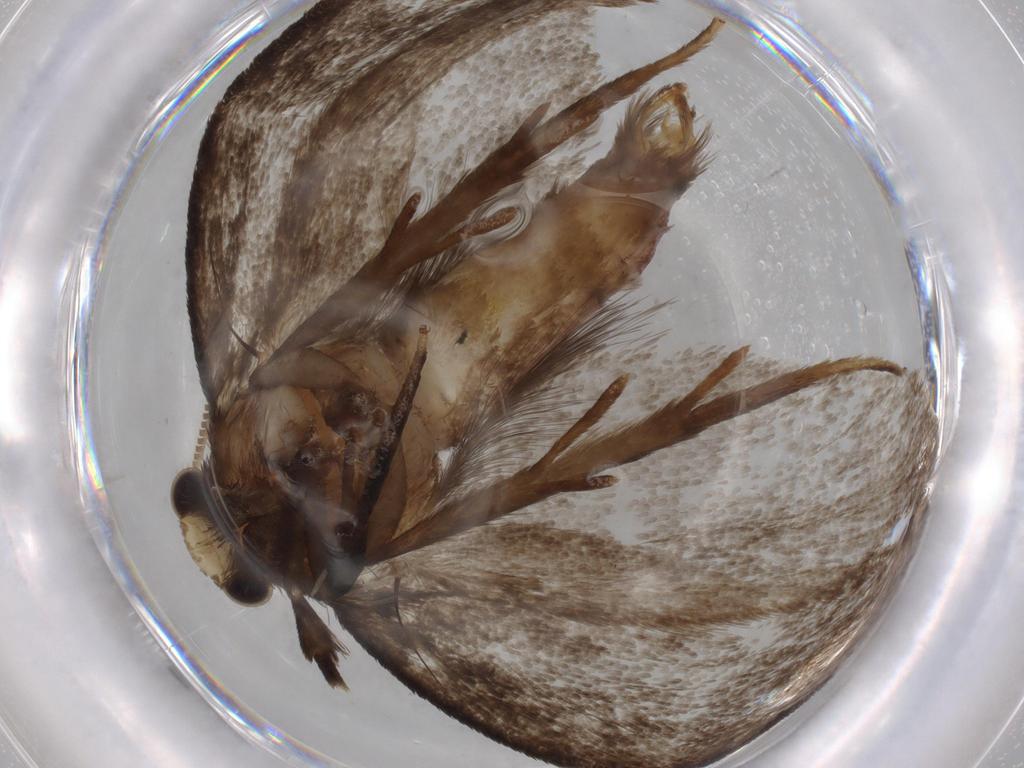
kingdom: Animalia
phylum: Arthropoda
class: Insecta
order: Lepidoptera
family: Tineidae
